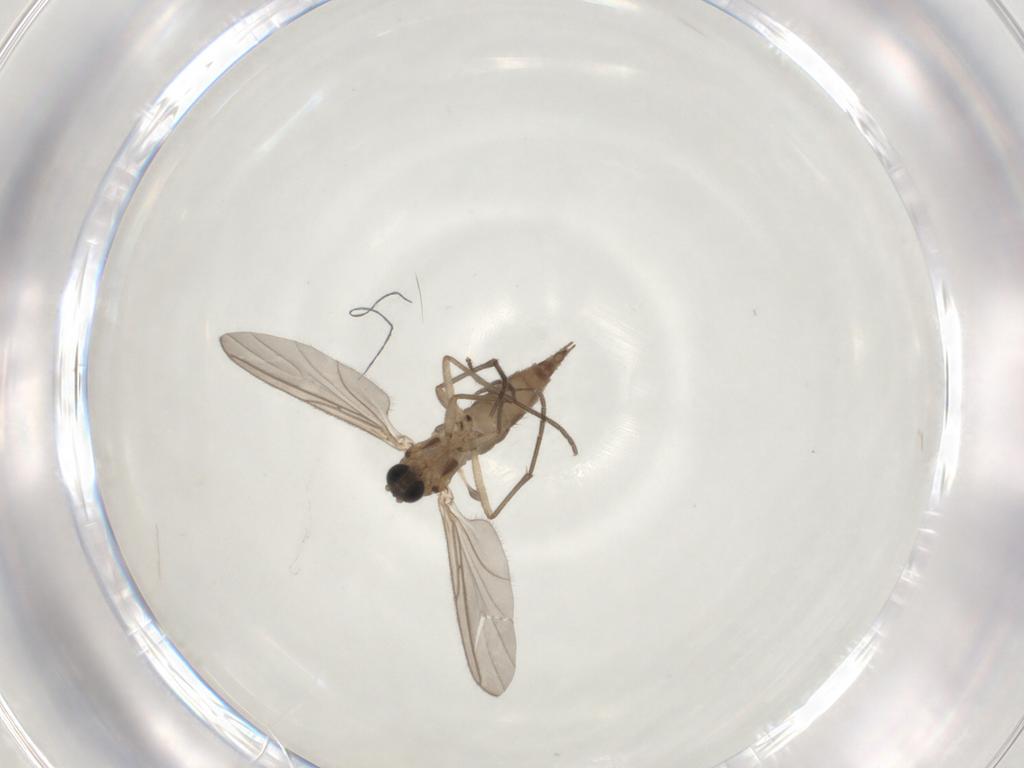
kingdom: Animalia
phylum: Arthropoda
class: Insecta
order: Diptera
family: Ceratopogonidae
